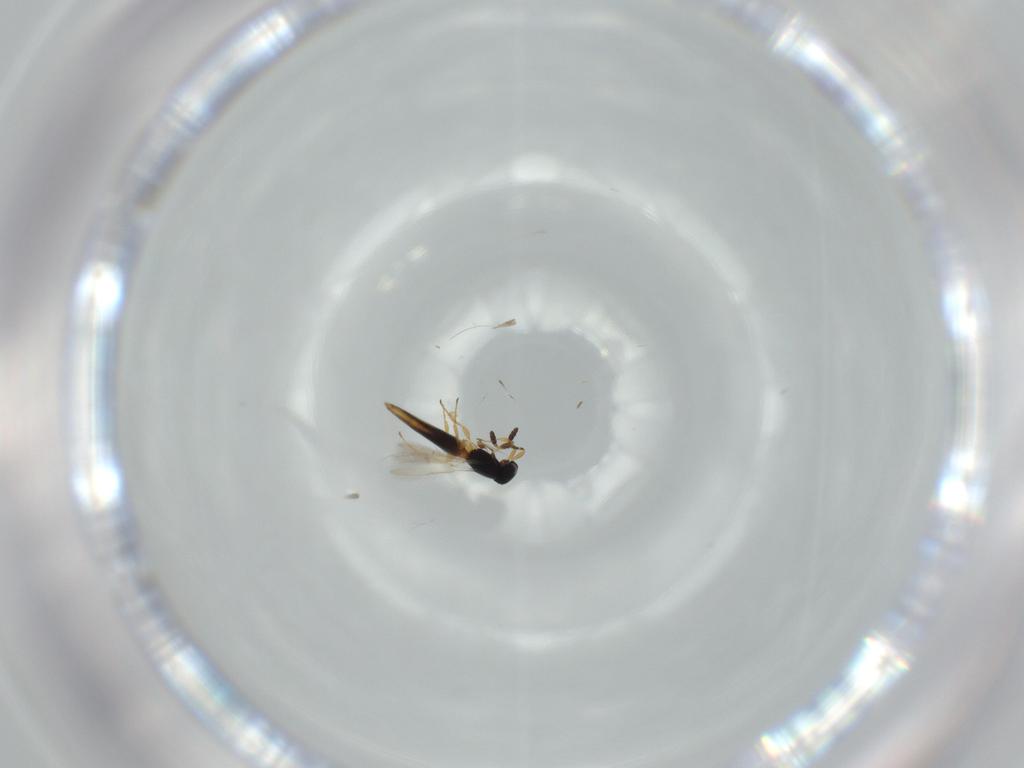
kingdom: Animalia
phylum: Arthropoda
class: Insecta
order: Hymenoptera
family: Scelionidae
